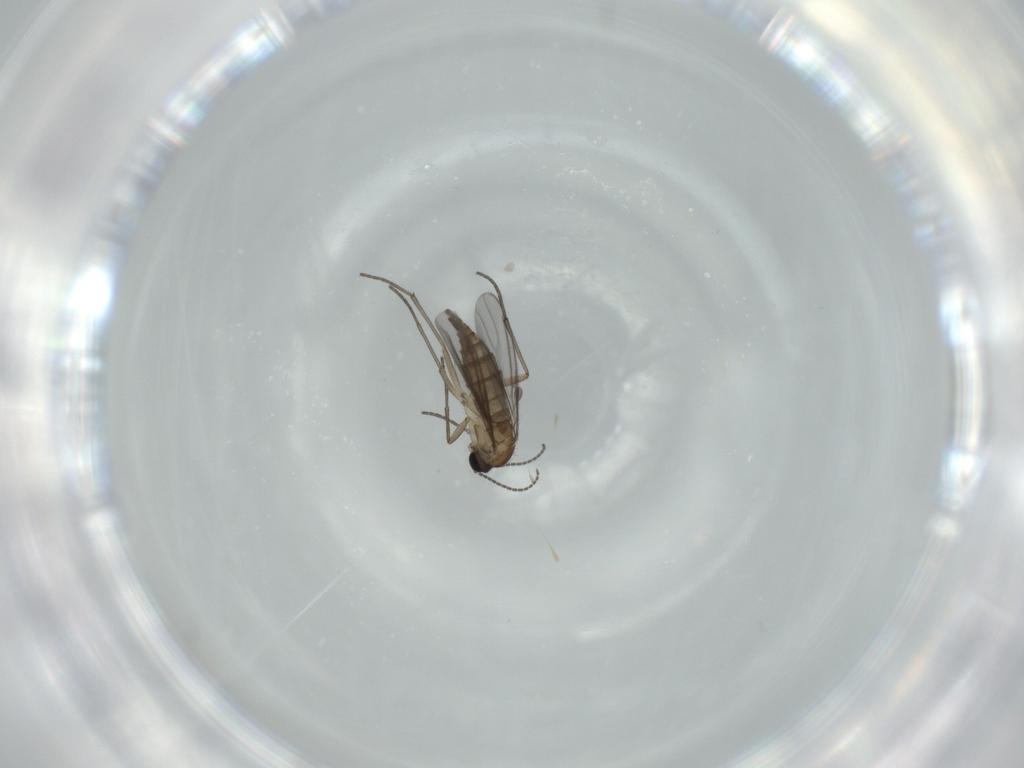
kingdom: Animalia
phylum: Arthropoda
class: Insecta
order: Diptera
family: Sciaridae
